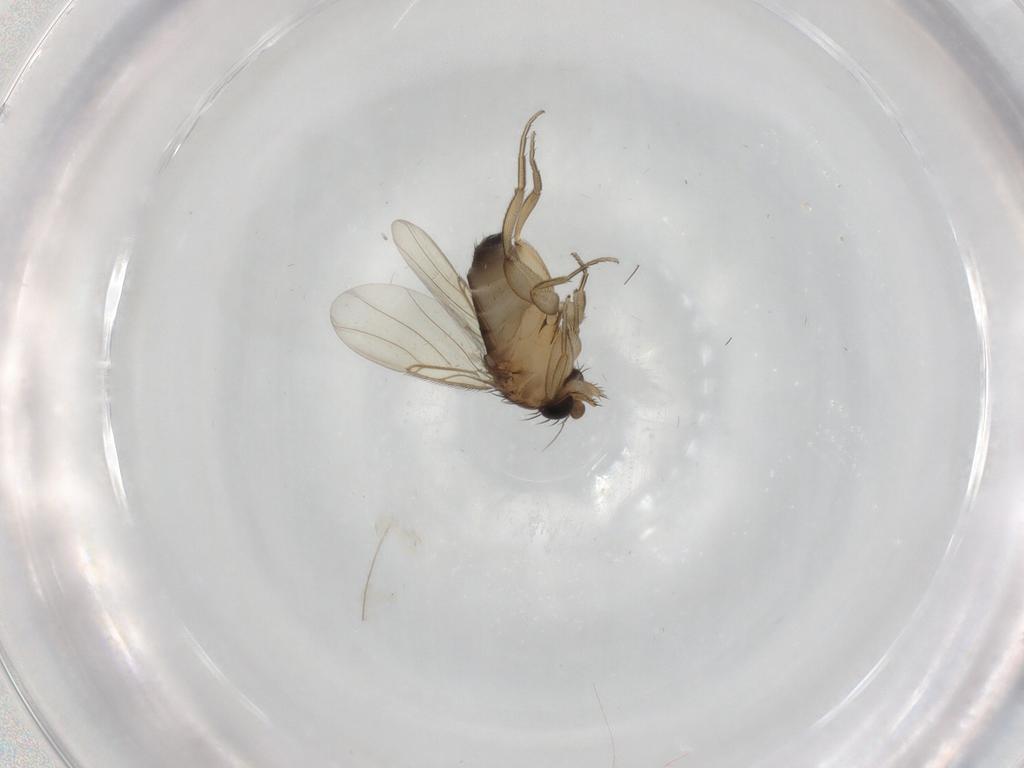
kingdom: Animalia
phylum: Arthropoda
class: Insecta
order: Diptera
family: Phoridae
